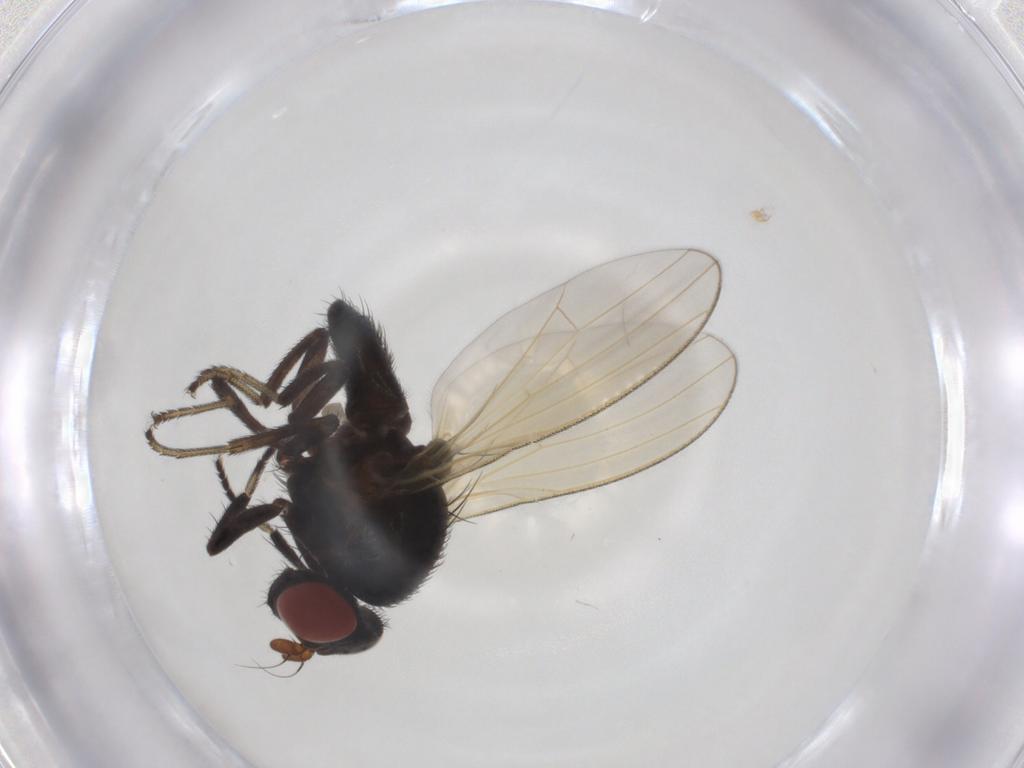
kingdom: Animalia
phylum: Arthropoda
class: Insecta
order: Diptera
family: Lauxaniidae
